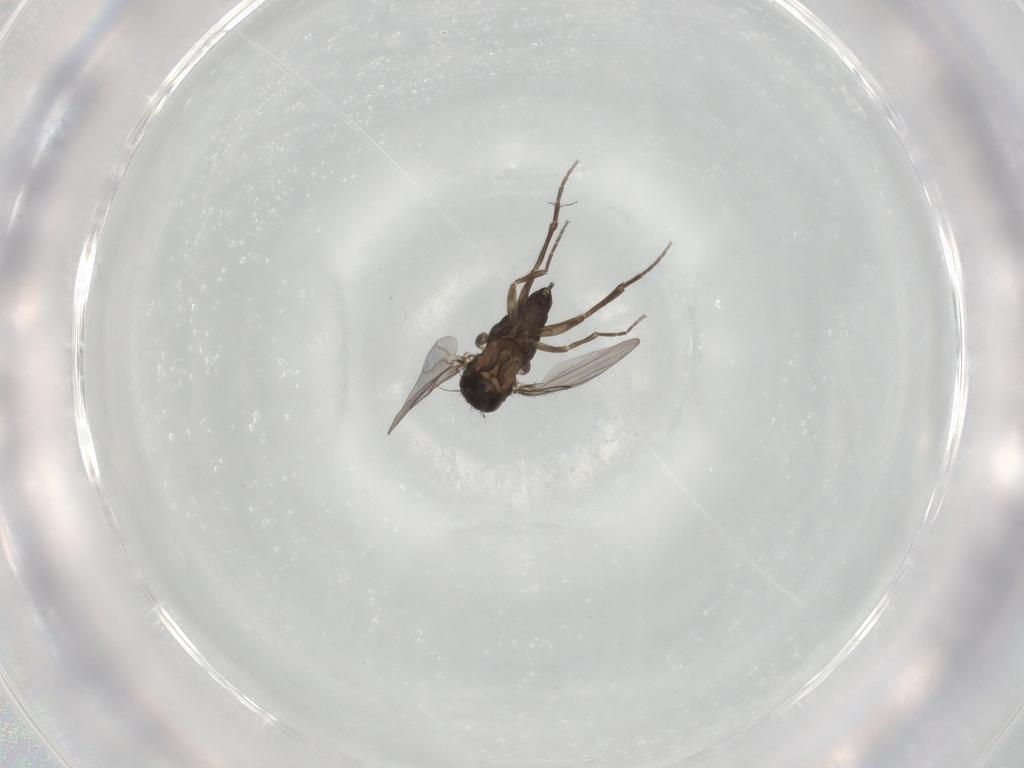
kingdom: Animalia
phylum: Arthropoda
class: Insecta
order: Diptera
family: Phoridae
